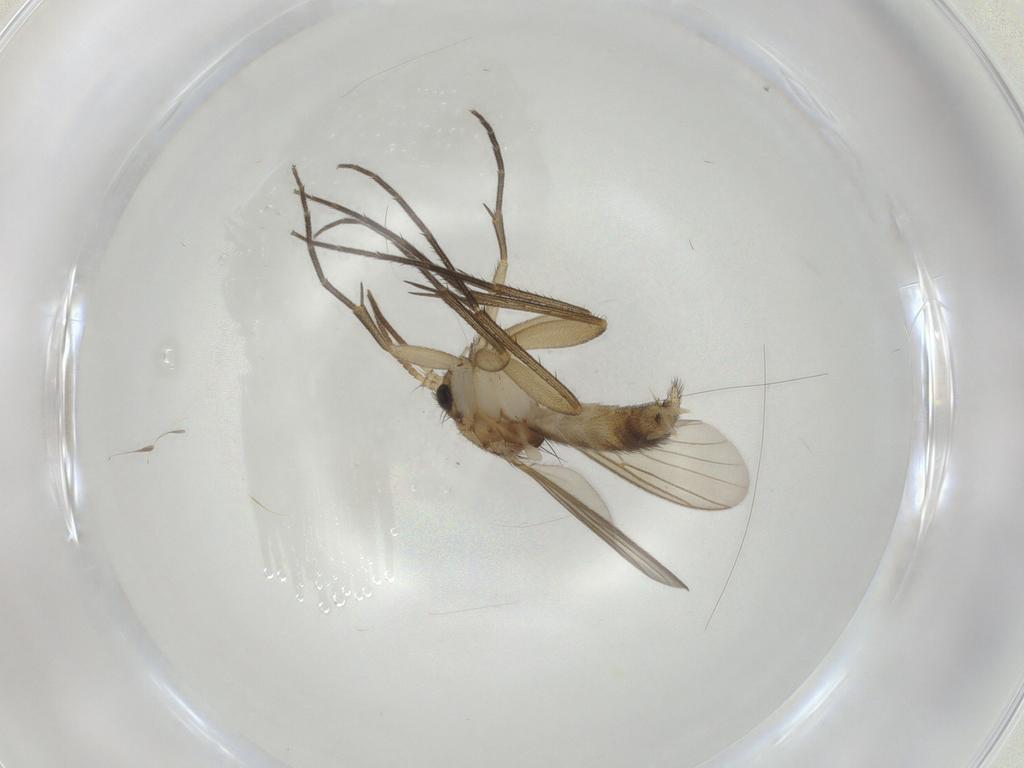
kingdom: Animalia
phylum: Arthropoda
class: Insecta
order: Diptera
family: Mycetophilidae
